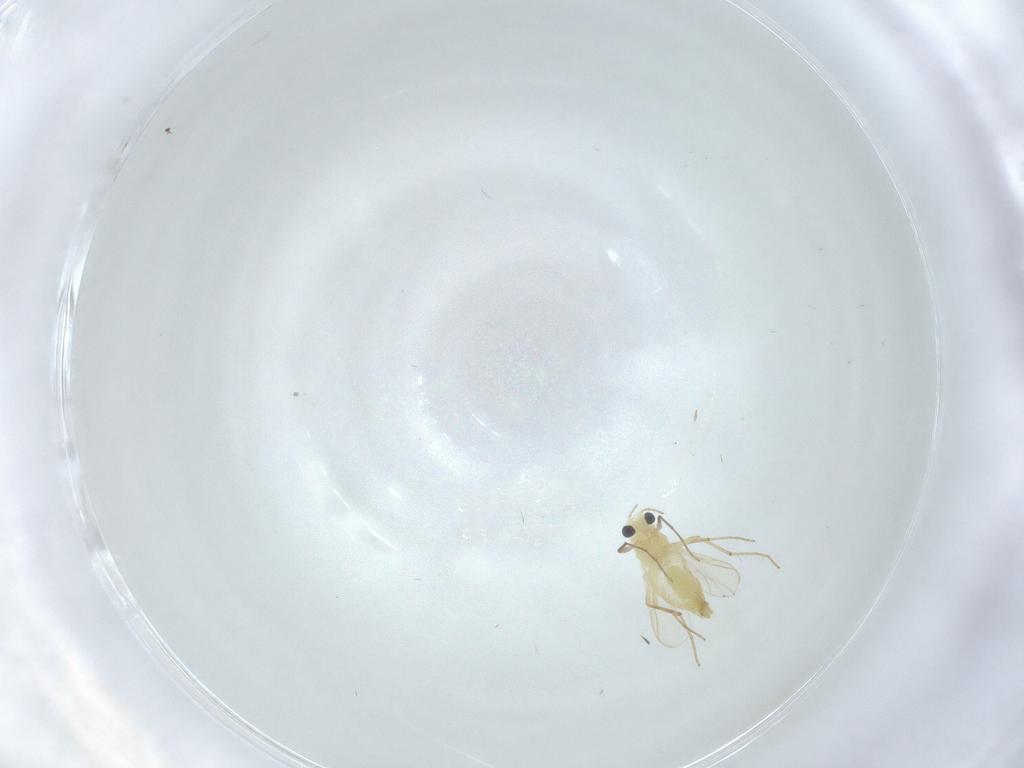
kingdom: Animalia
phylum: Arthropoda
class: Insecta
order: Diptera
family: Cecidomyiidae
